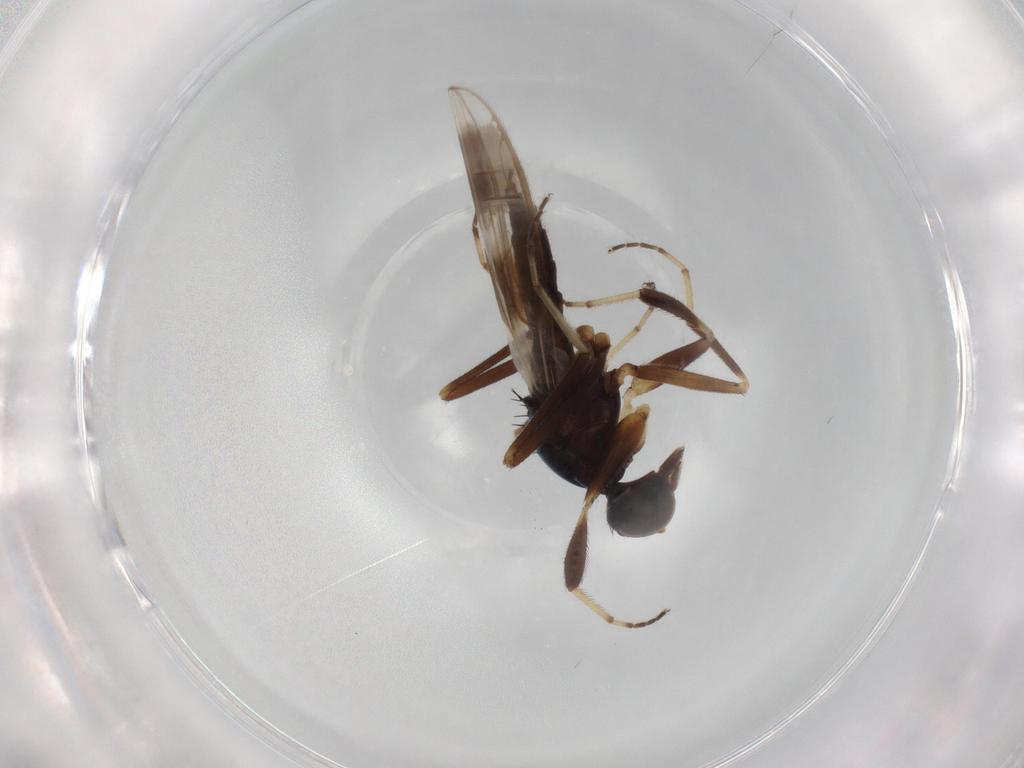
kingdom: Animalia
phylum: Arthropoda
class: Insecta
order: Diptera
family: Hybotidae
